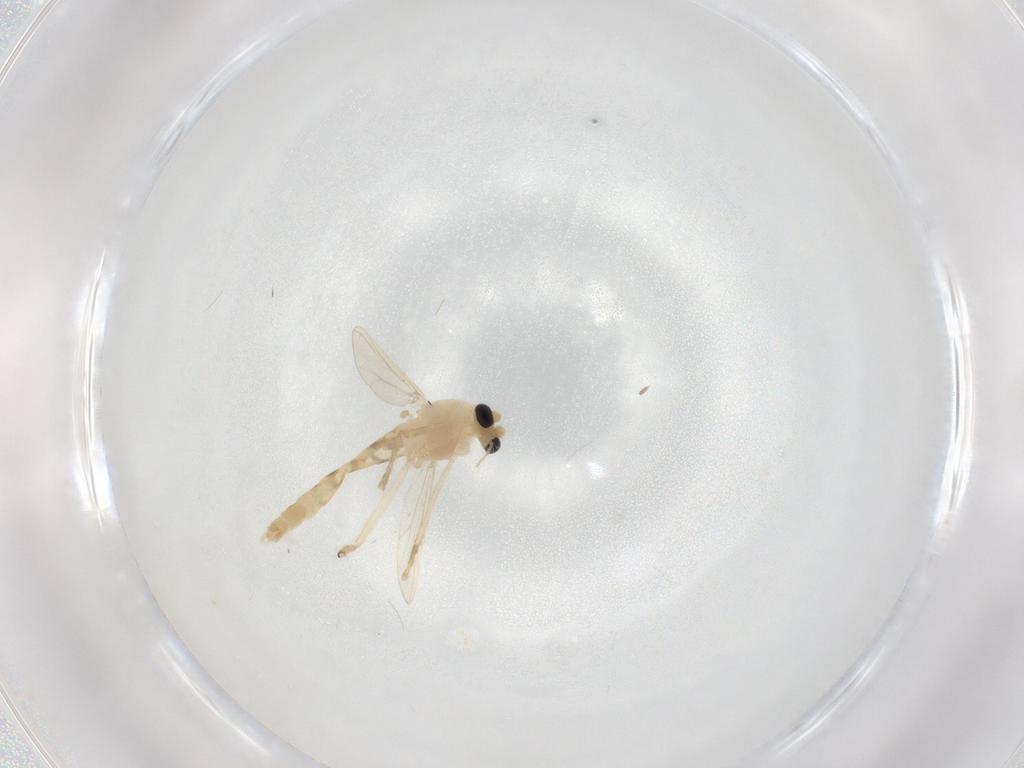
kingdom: Animalia
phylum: Arthropoda
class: Insecta
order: Diptera
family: Chironomidae
